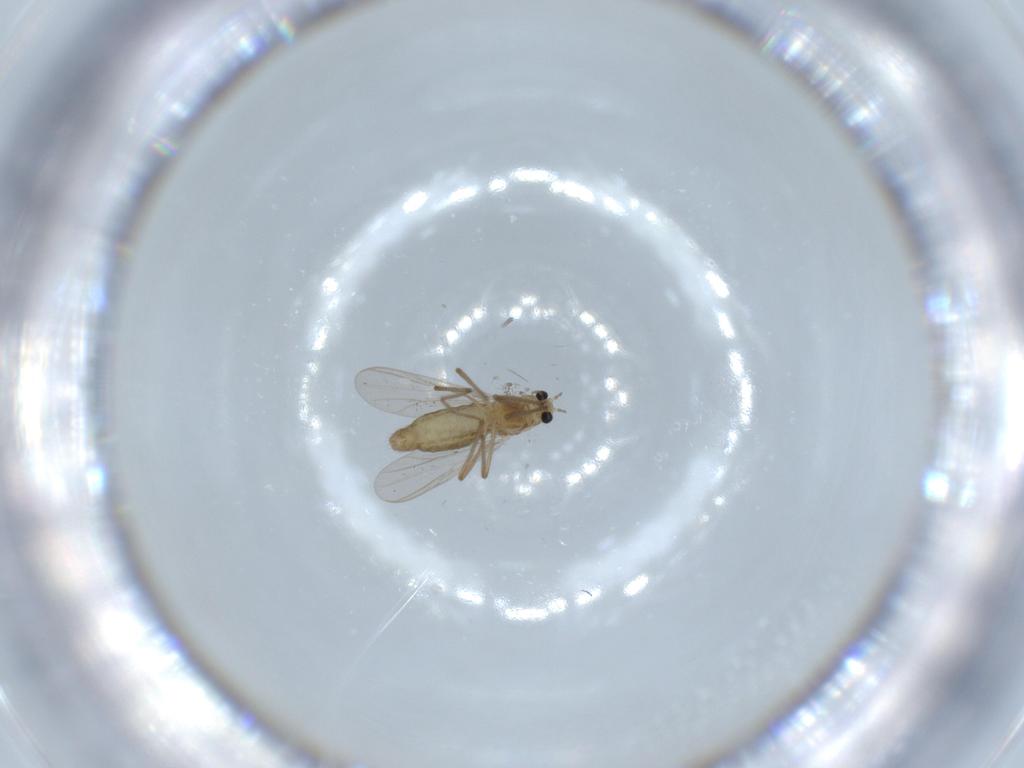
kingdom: Animalia
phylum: Arthropoda
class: Insecta
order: Diptera
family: Chironomidae
